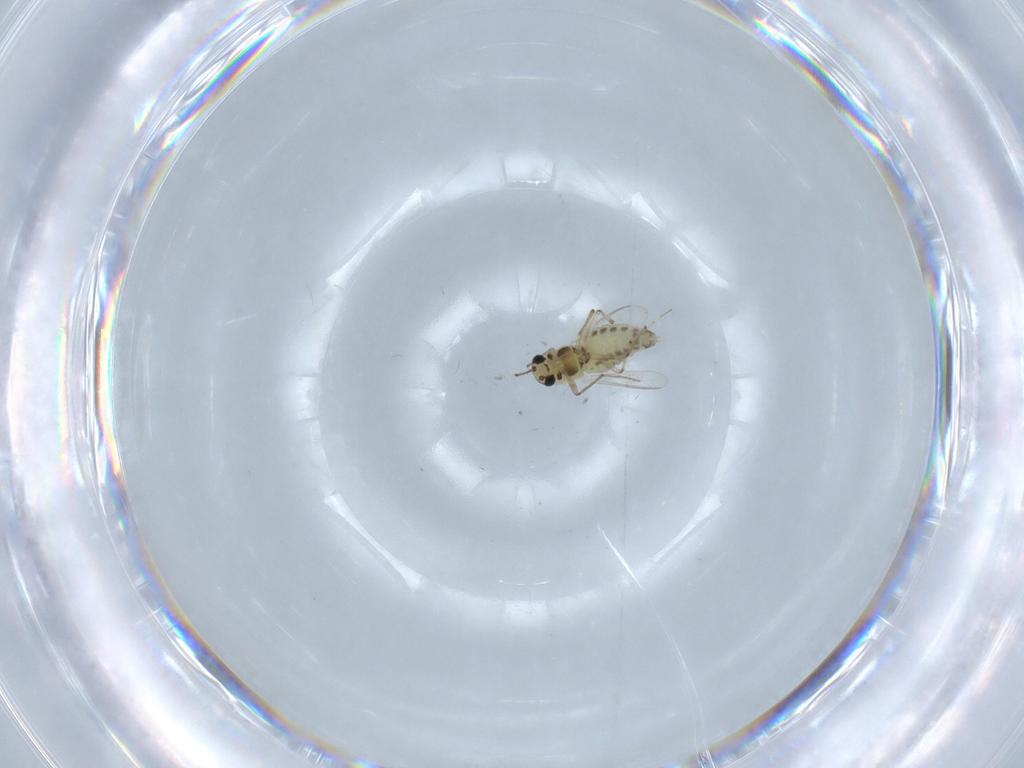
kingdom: Animalia
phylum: Arthropoda
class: Insecta
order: Diptera
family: Chironomidae
